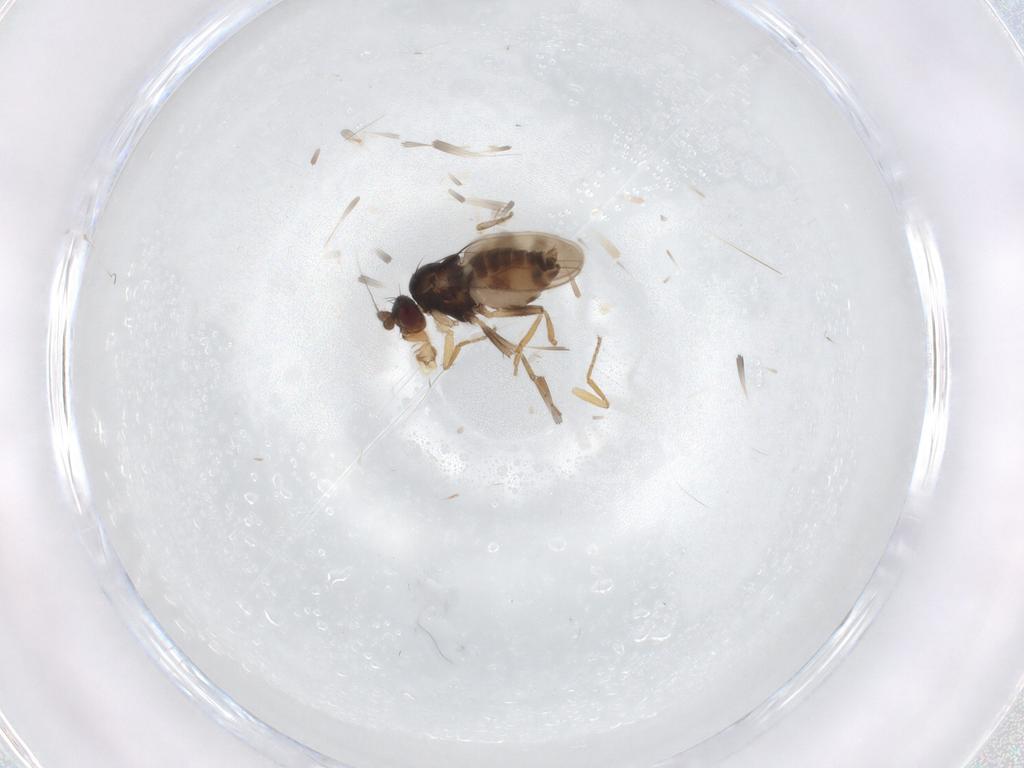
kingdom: Animalia
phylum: Arthropoda
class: Insecta
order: Diptera
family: Sphaeroceridae
